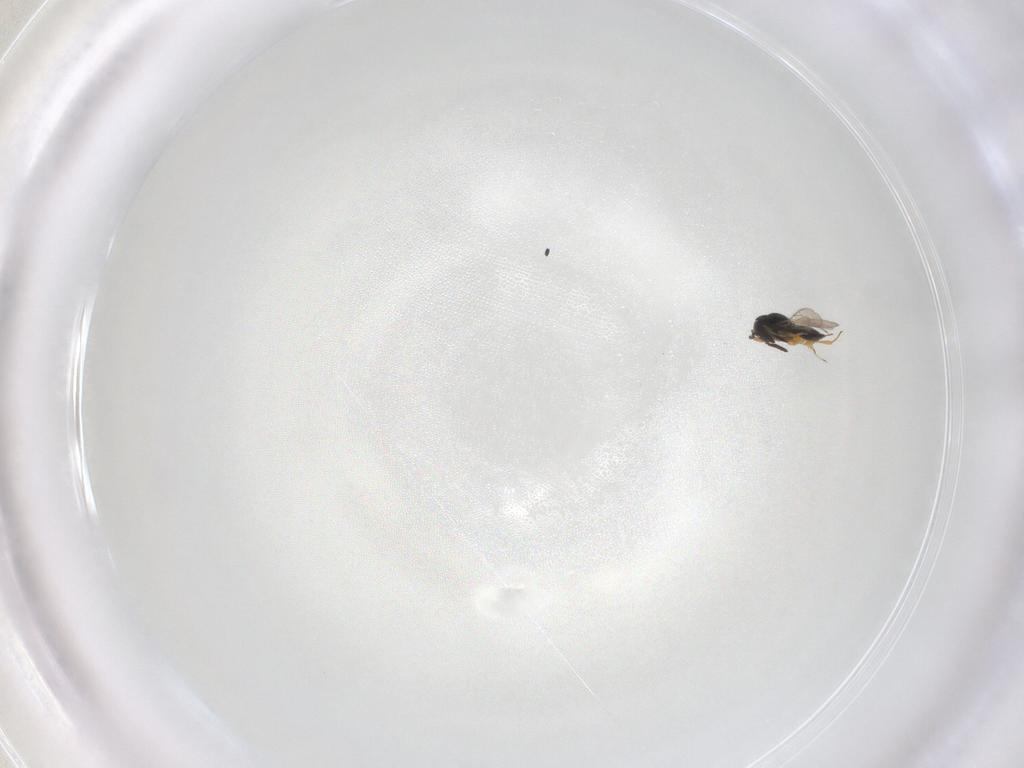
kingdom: Animalia
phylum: Arthropoda
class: Insecta
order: Hymenoptera
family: Scelionidae
